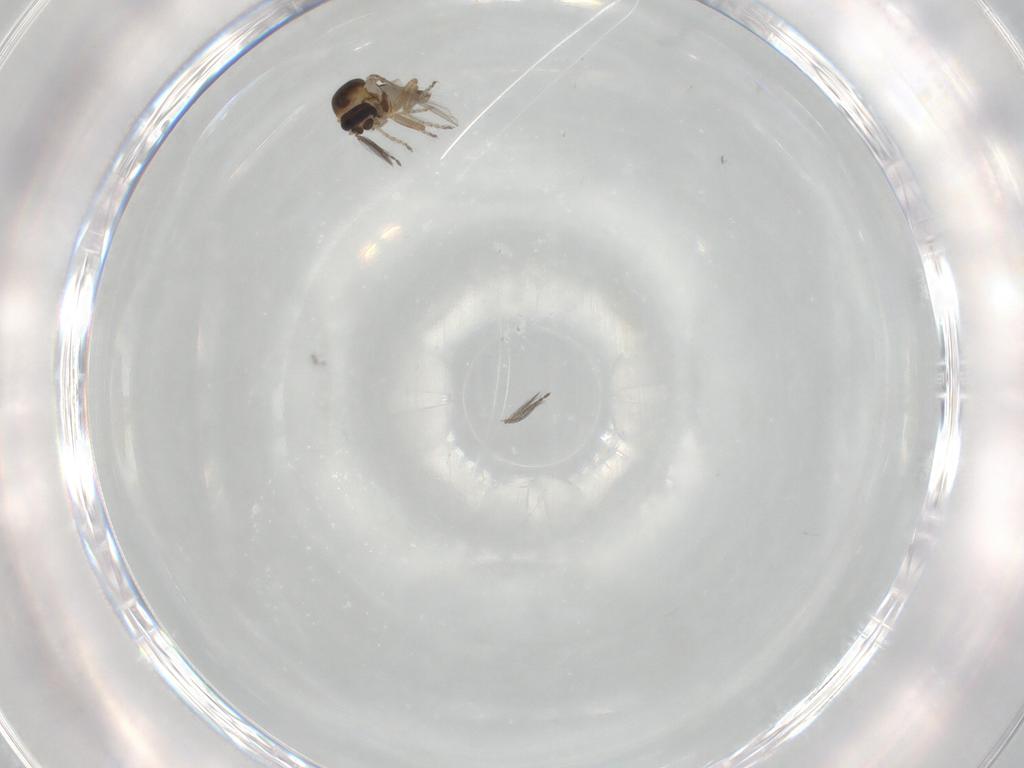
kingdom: Animalia
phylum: Arthropoda
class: Insecta
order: Diptera
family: Ceratopogonidae
